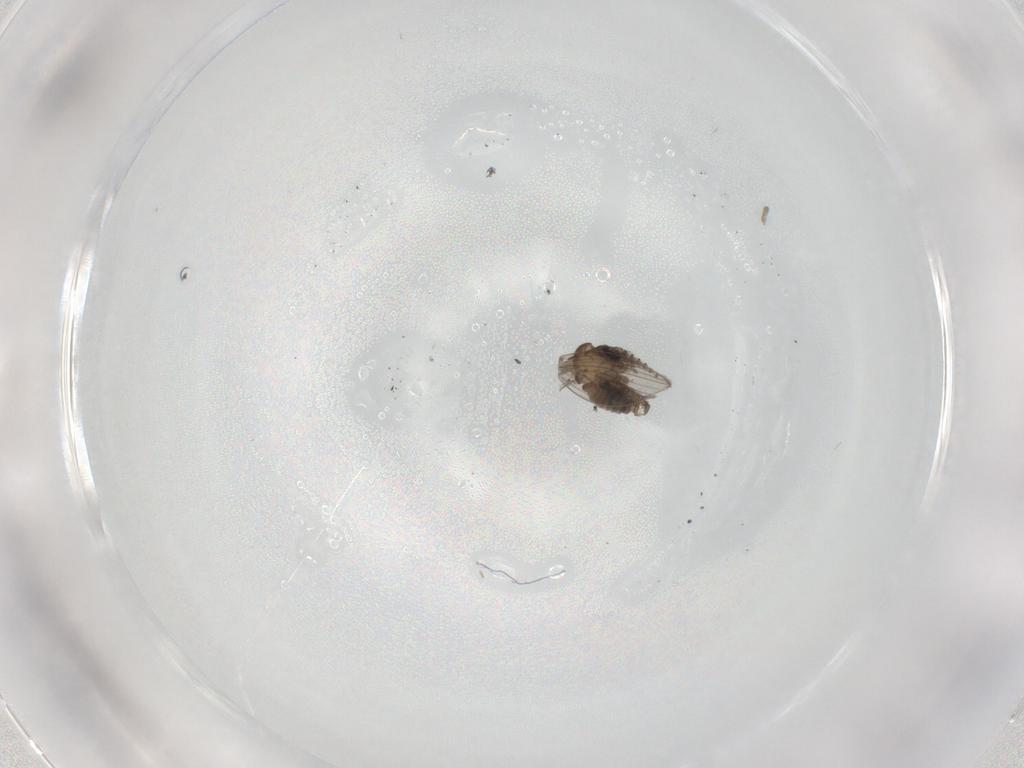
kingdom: Animalia
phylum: Arthropoda
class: Insecta
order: Diptera
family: Psychodidae
